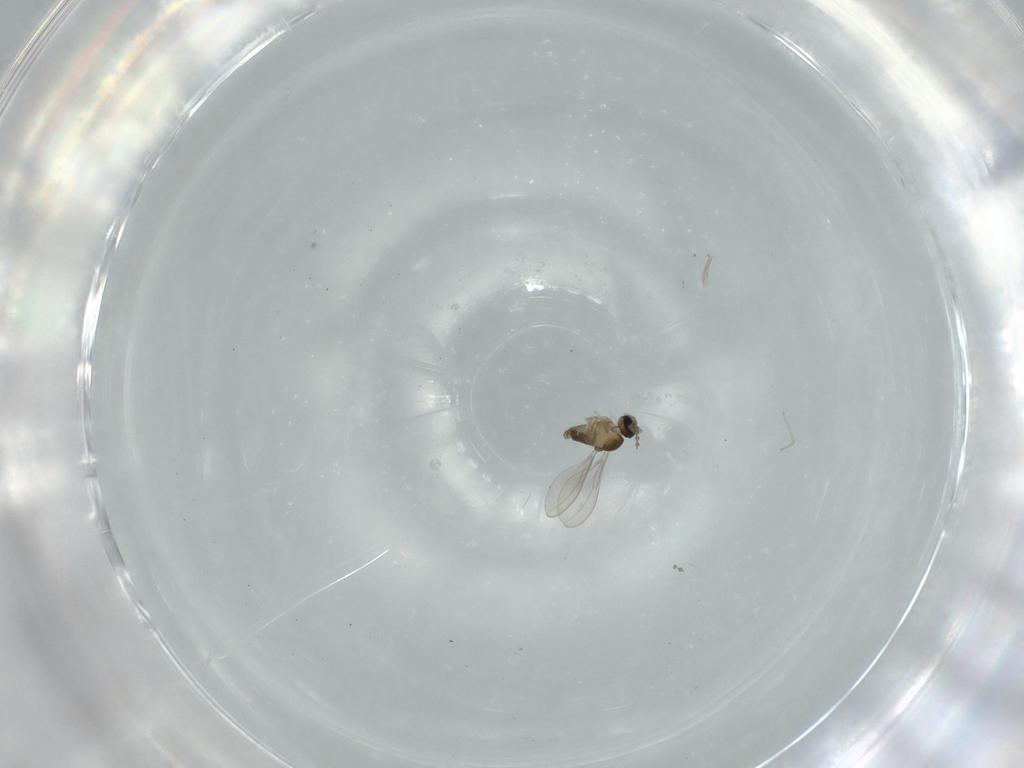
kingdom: Animalia
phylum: Arthropoda
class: Insecta
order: Diptera
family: Cecidomyiidae
